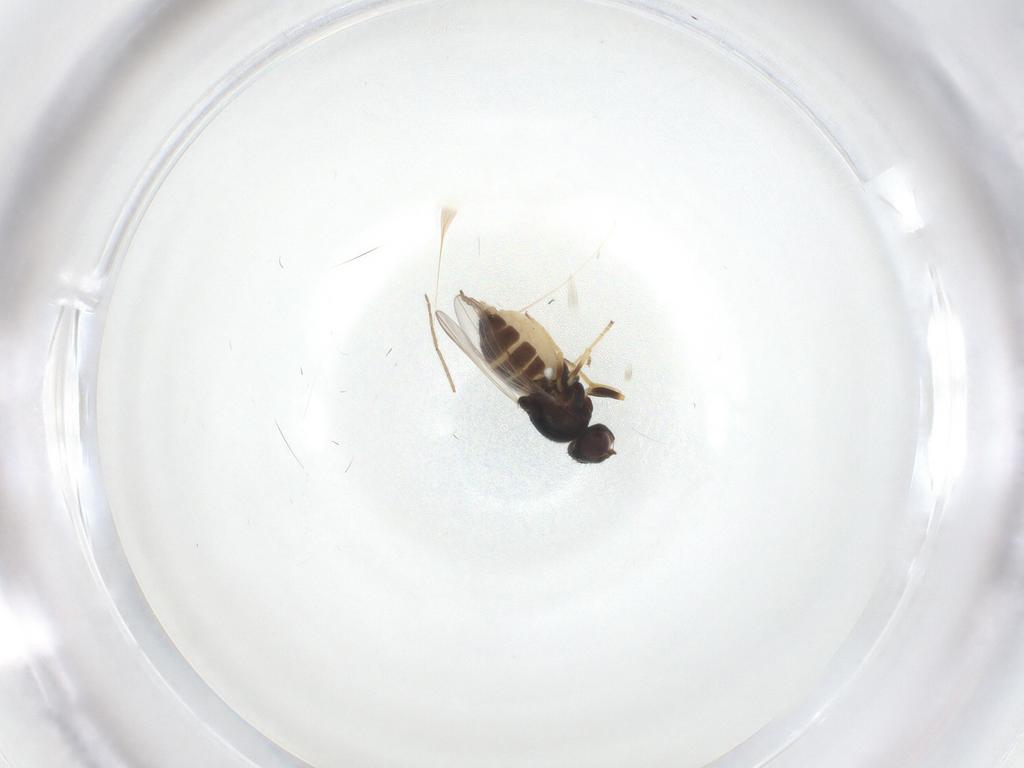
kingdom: Animalia
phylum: Arthropoda
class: Insecta
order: Diptera
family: Chloropidae
